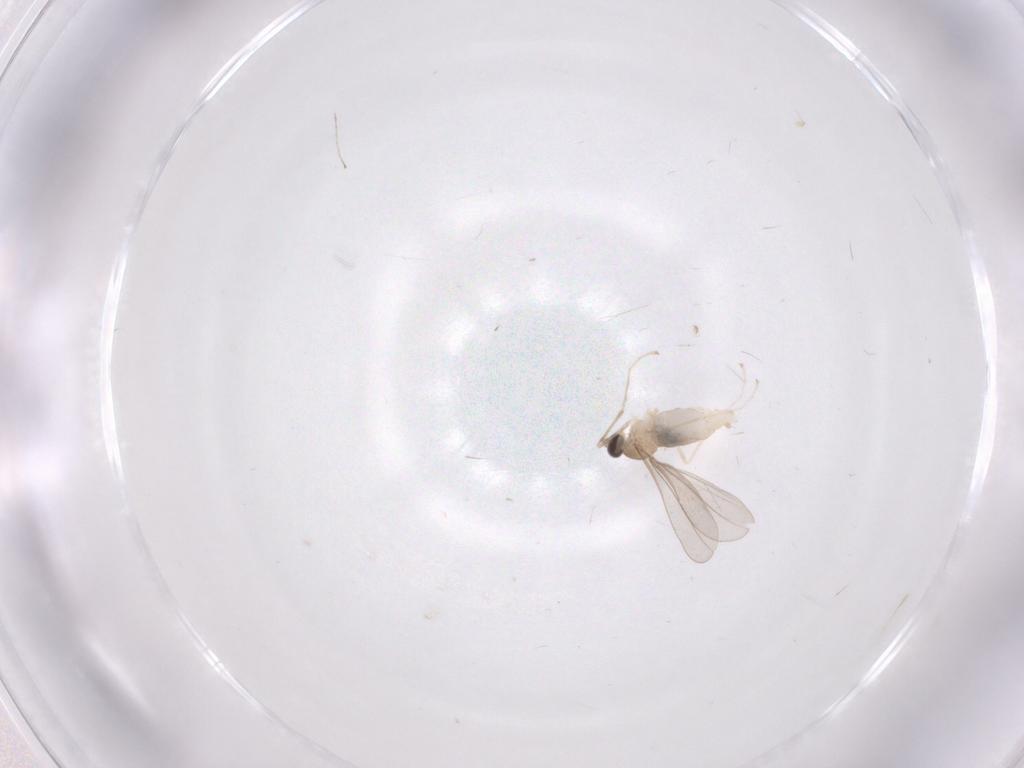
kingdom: Animalia
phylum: Arthropoda
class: Insecta
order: Diptera
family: Cecidomyiidae
